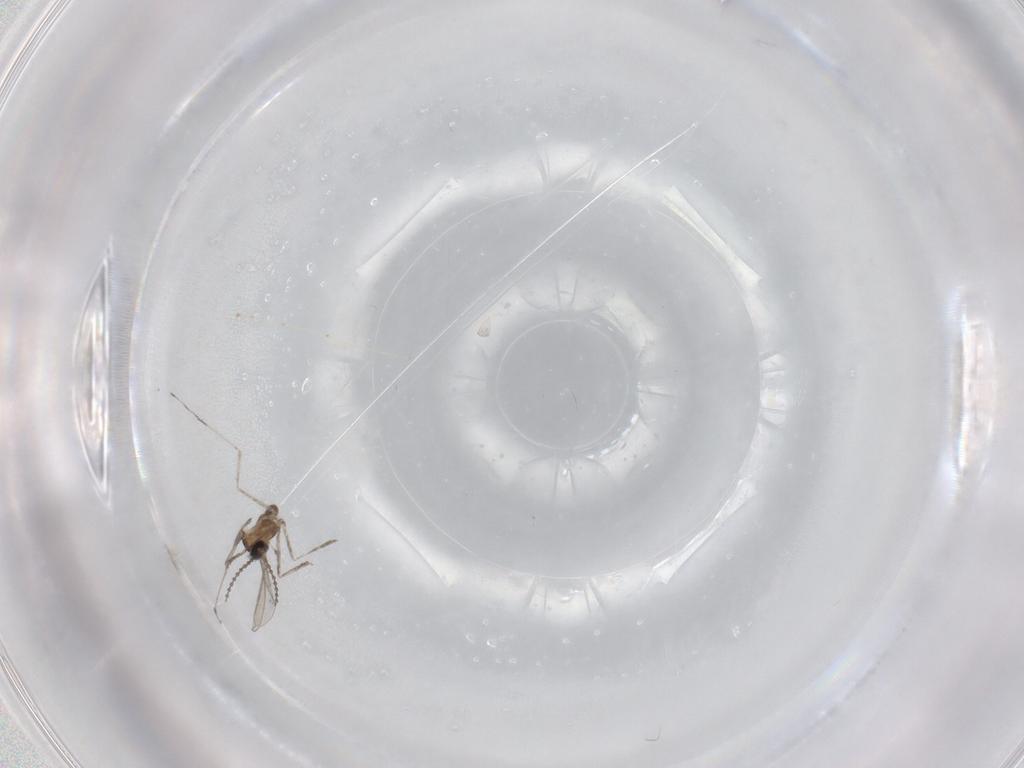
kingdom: Animalia
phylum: Arthropoda
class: Insecta
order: Diptera
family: Cecidomyiidae
